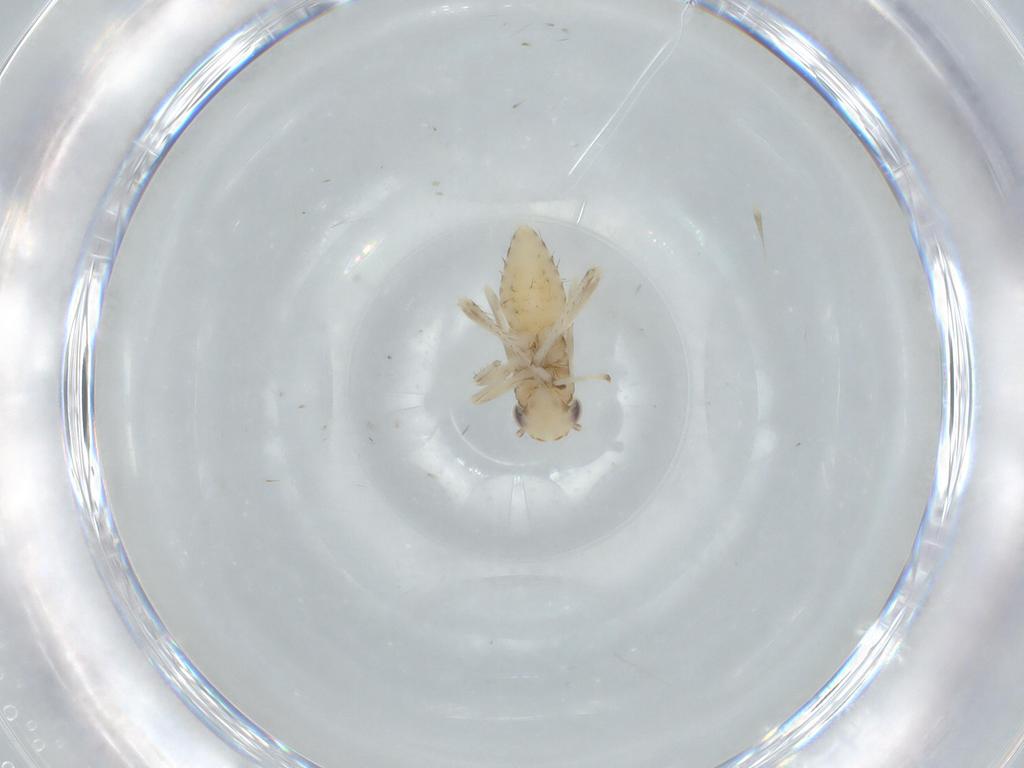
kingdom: Animalia
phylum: Arthropoda
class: Insecta
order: Hemiptera
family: Cicadellidae
